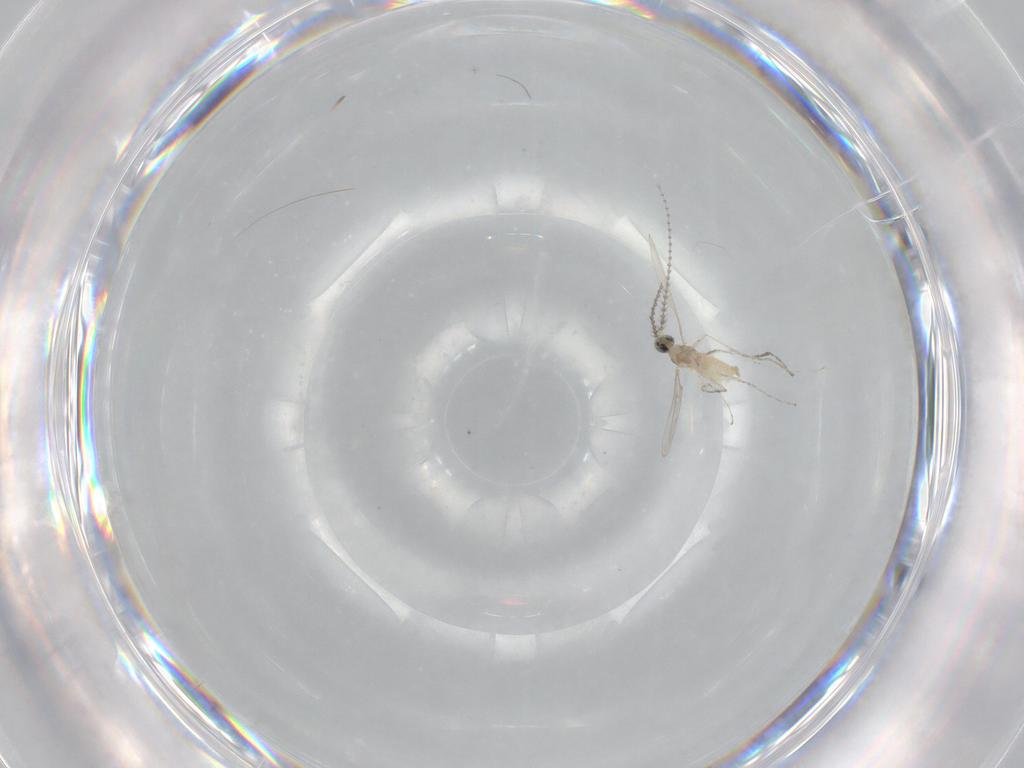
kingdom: Animalia
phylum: Arthropoda
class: Insecta
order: Diptera
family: Cecidomyiidae
